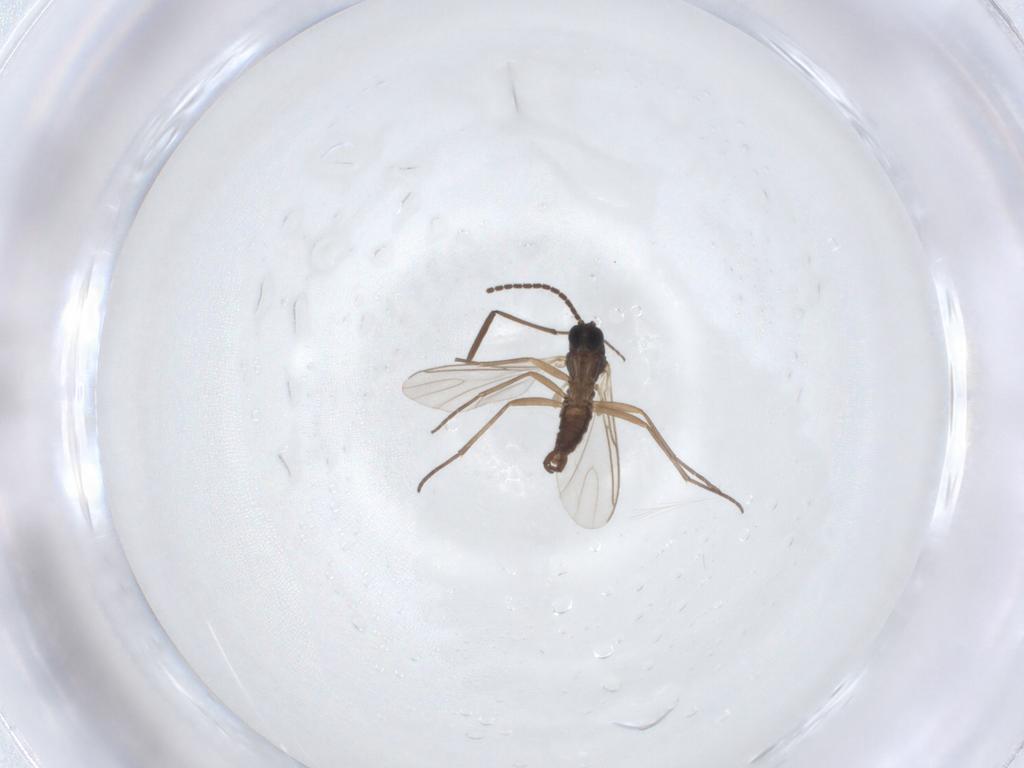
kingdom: Animalia
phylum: Arthropoda
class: Insecta
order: Diptera
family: Sciaridae
